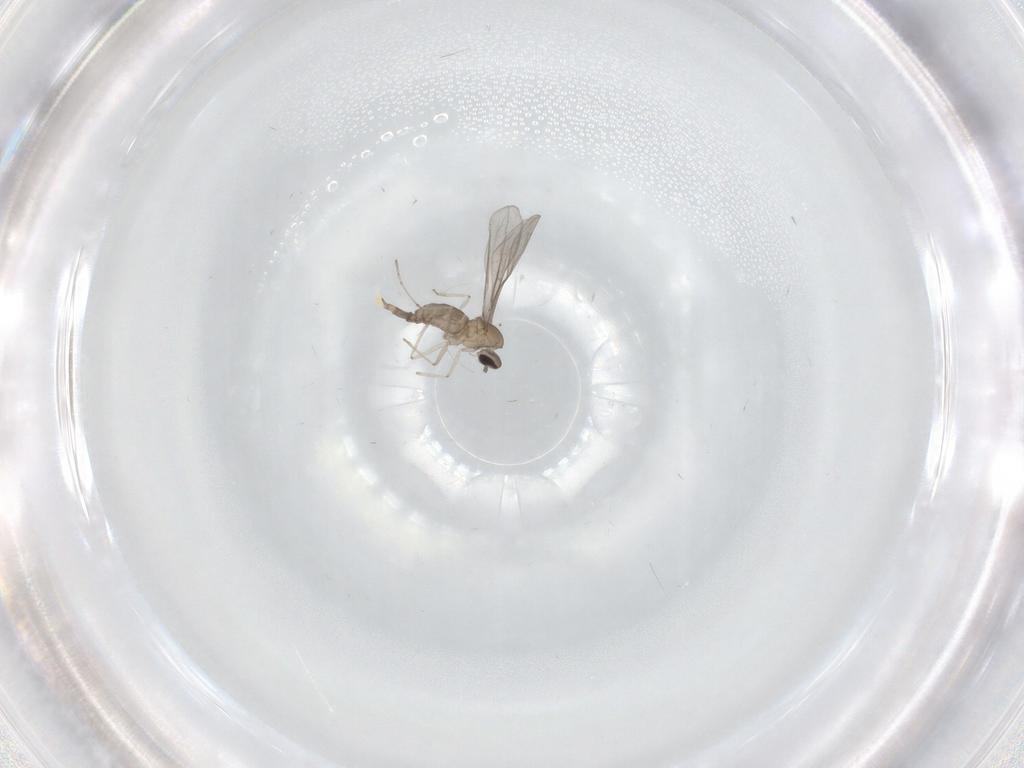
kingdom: Animalia
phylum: Arthropoda
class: Insecta
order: Diptera
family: Cecidomyiidae
